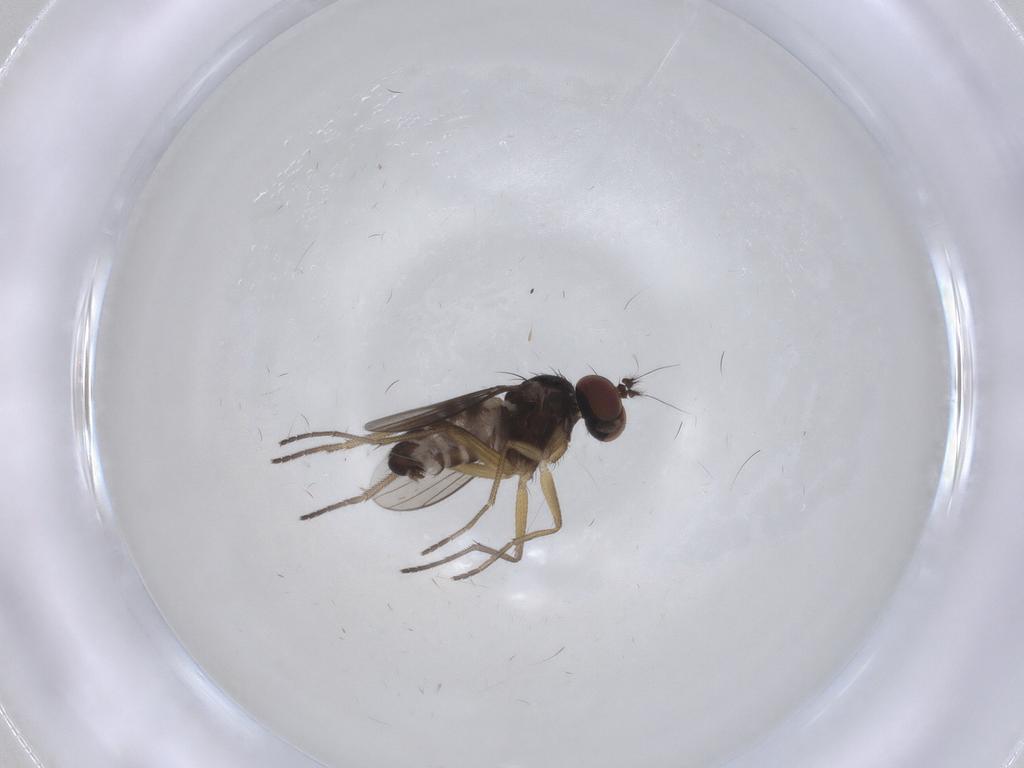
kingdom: Animalia
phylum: Arthropoda
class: Insecta
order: Diptera
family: Dolichopodidae
